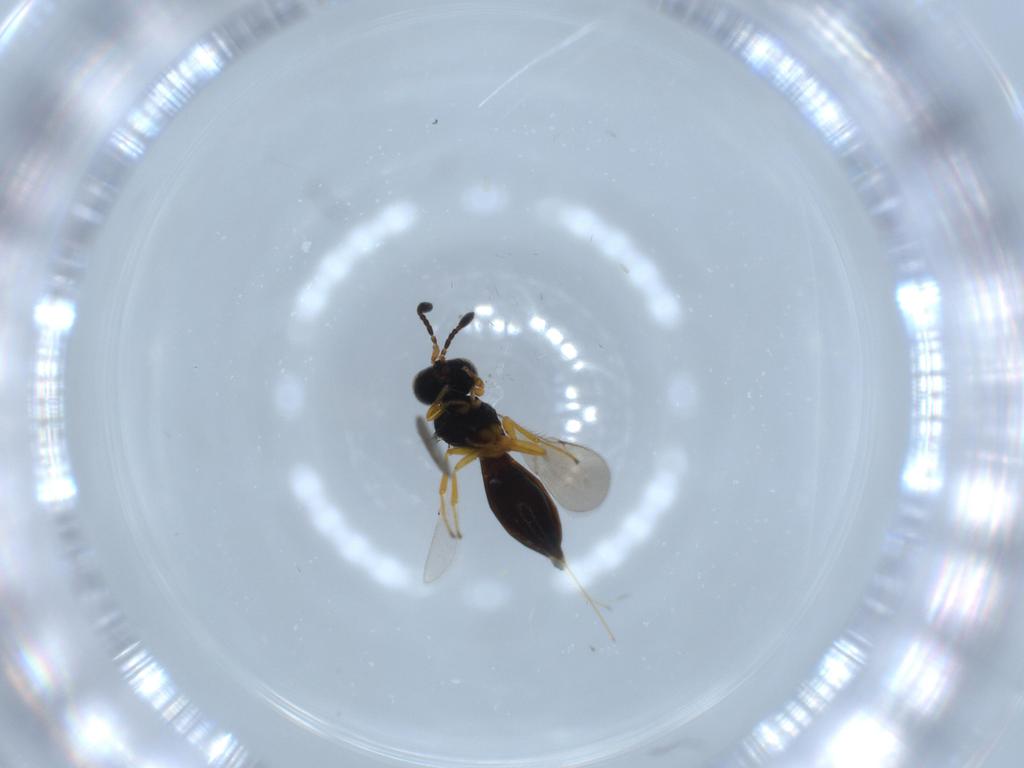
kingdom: Animalia
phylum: Arthropoda
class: Insecta
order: Hymenoptera
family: Scelionidae
